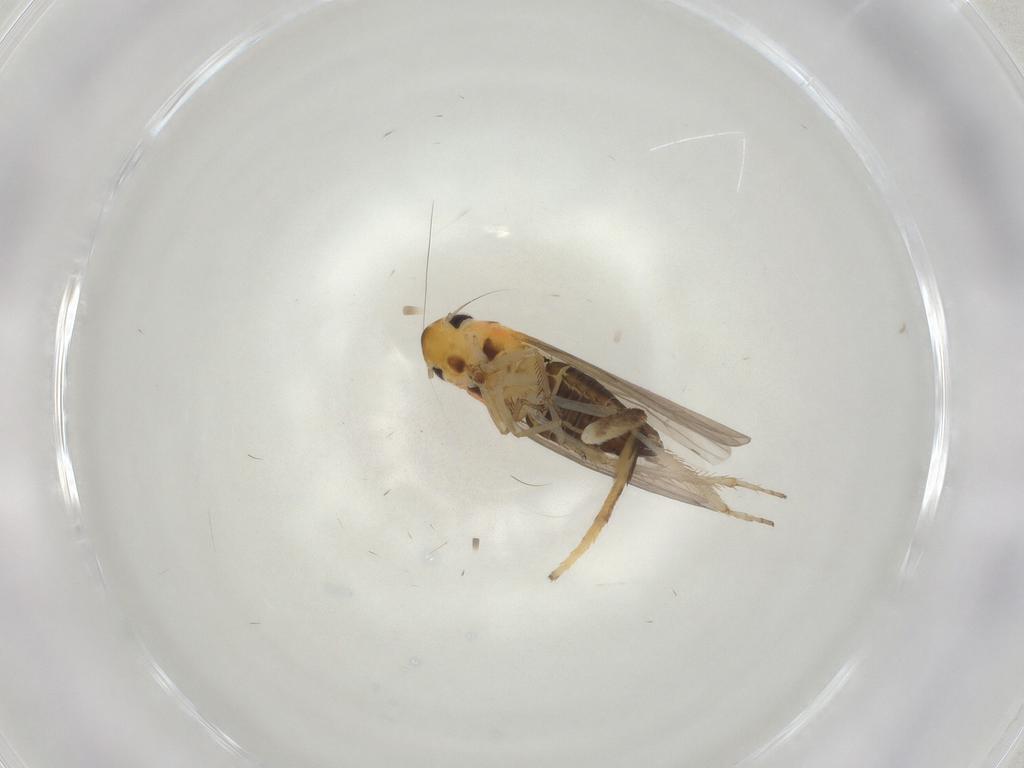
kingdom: Animalia
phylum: Arthropoda
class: Insecta
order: Hemiptera
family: Cicadellidae
